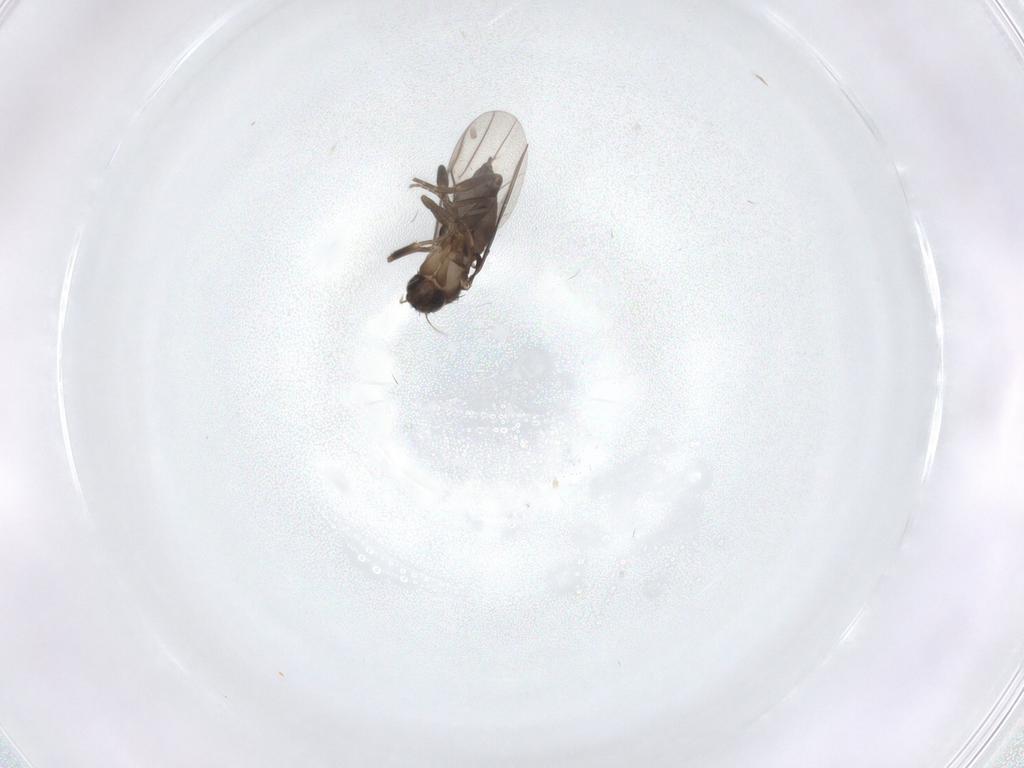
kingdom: Animalia
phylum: Arthropoda
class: Insecta
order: Diptera
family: Phoridae
